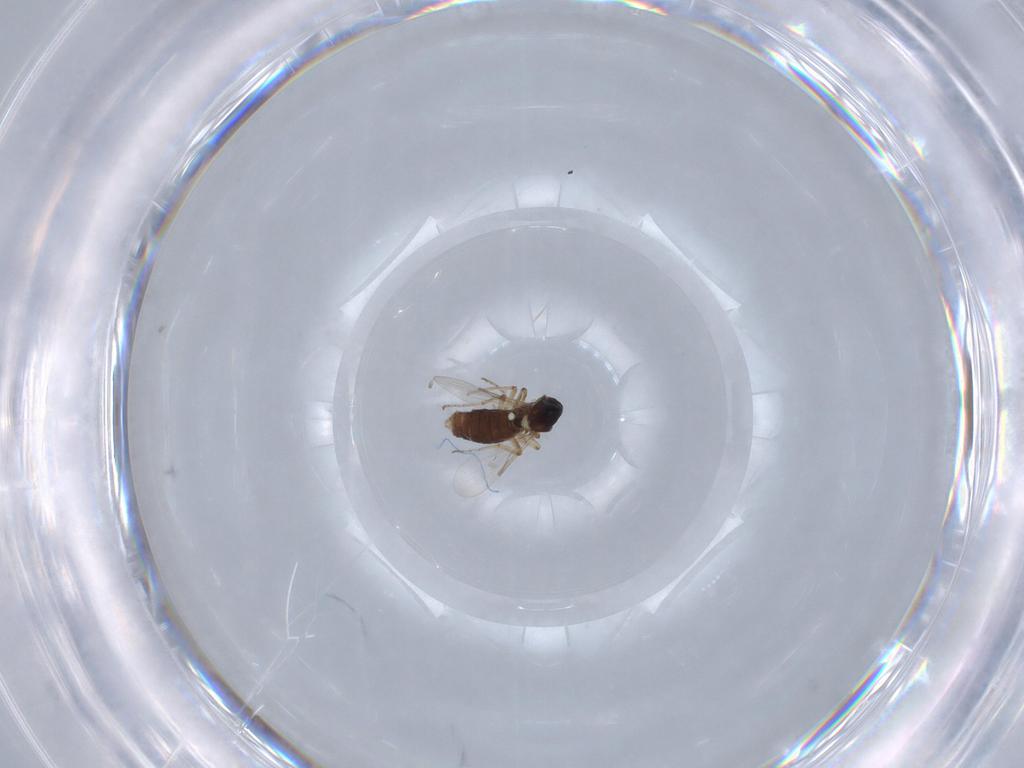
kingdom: Animalia
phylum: Arthropoda
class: Insecta
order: Diptera
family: Ceratopogonidae
